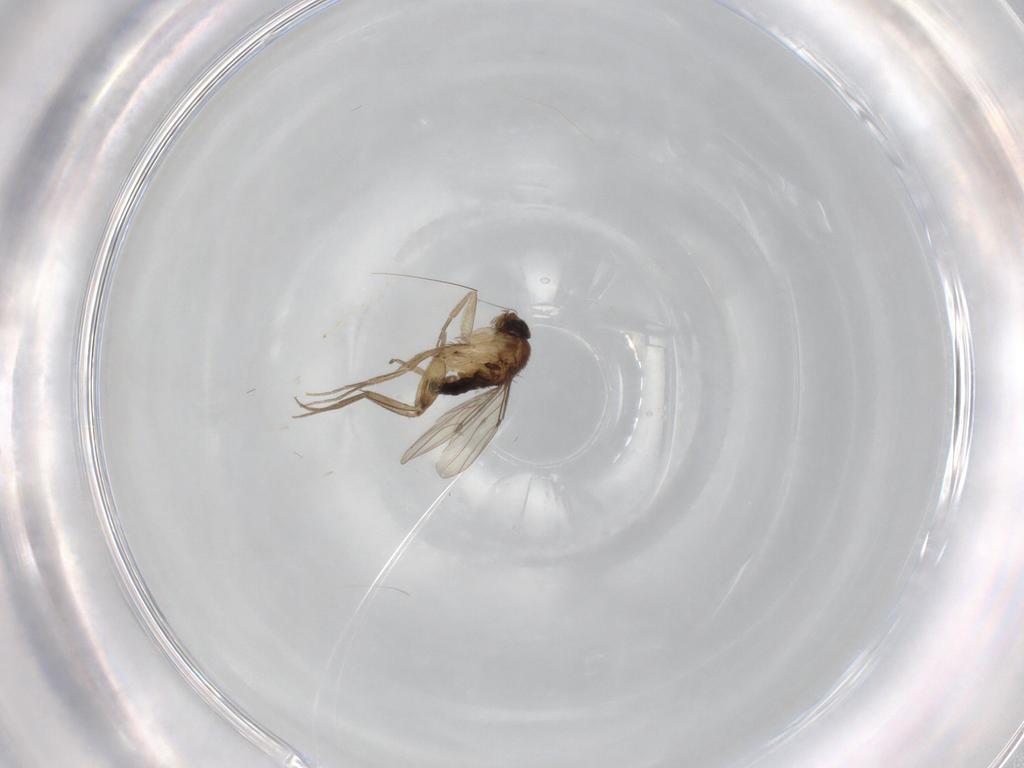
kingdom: Animalia
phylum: Arthropoda
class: Insecta
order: Diptera
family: Phoridae
